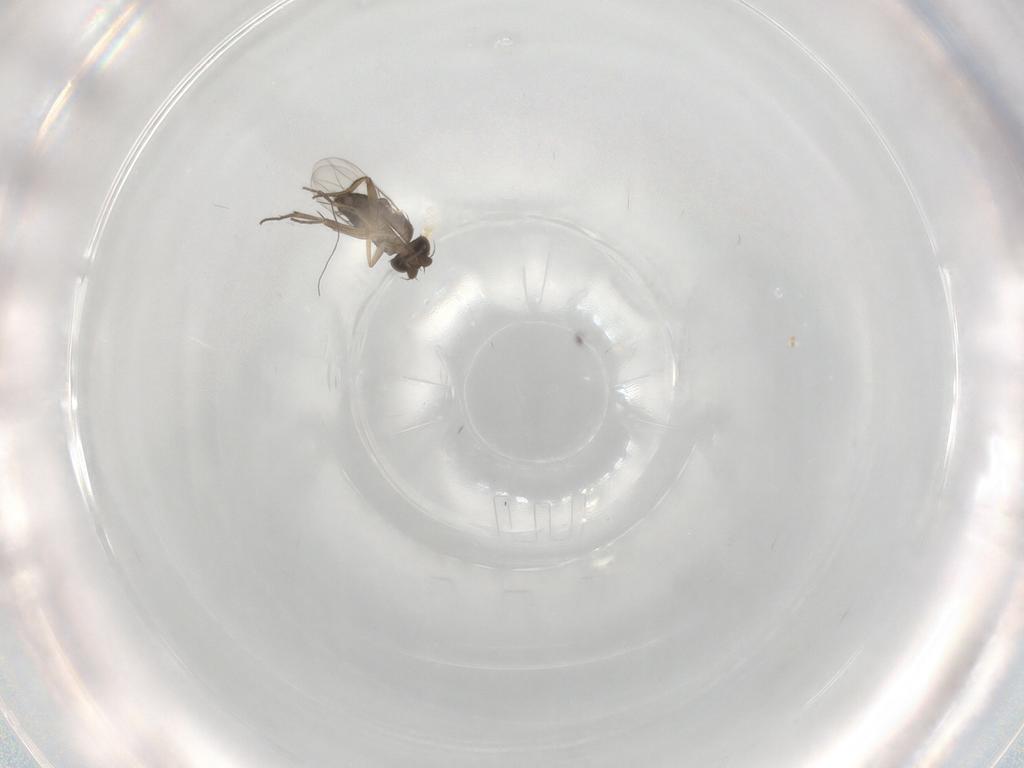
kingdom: Animalia
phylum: Arthropoda
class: Insecta
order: Diptera
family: Phoridae
